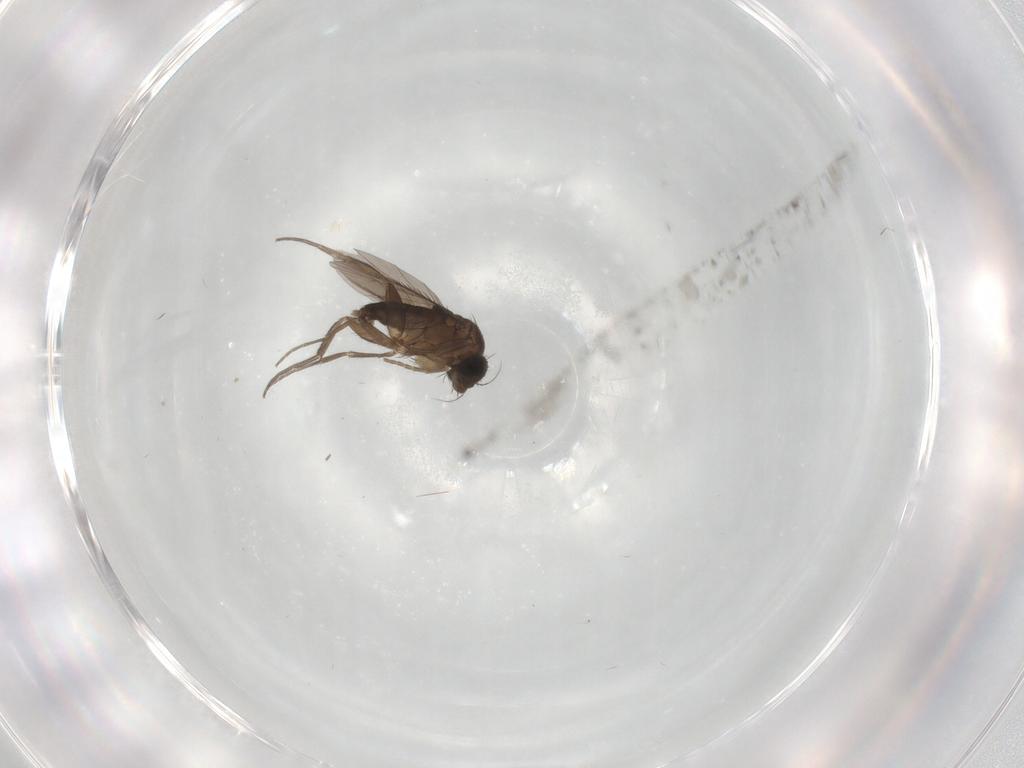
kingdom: Animalia
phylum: Arthropoda
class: Insecta
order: Diptera
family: Phoridae
